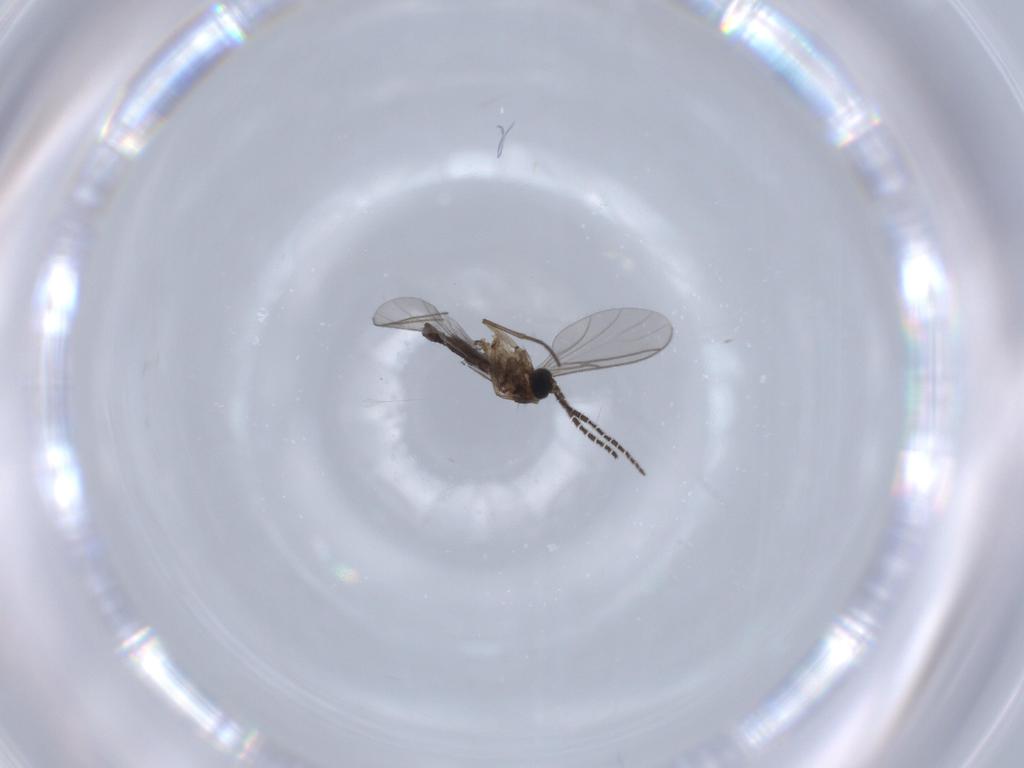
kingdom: Animalia
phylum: Arthropoda
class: Insecta
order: Diptera
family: Sciaridae
